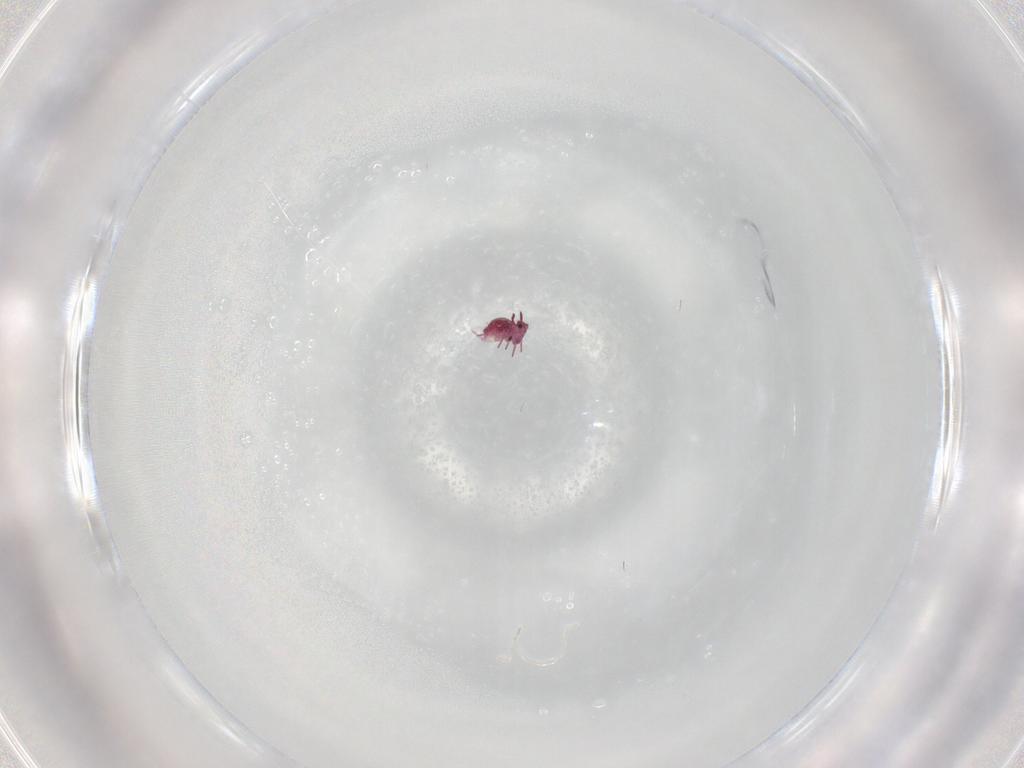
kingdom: Animalia
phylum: Arthropoda
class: Collembola
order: Symphypleona
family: Sminthurididae
